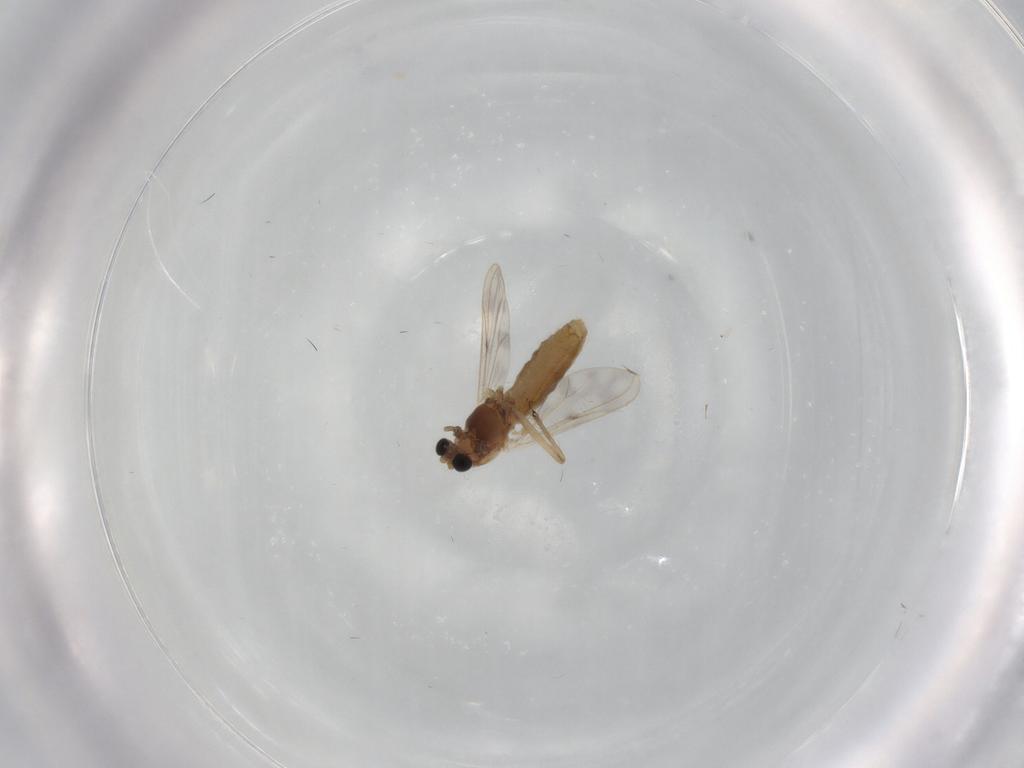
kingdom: Animalia
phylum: Arthropoda
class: Insecta
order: Diptera
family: Chironomidae
